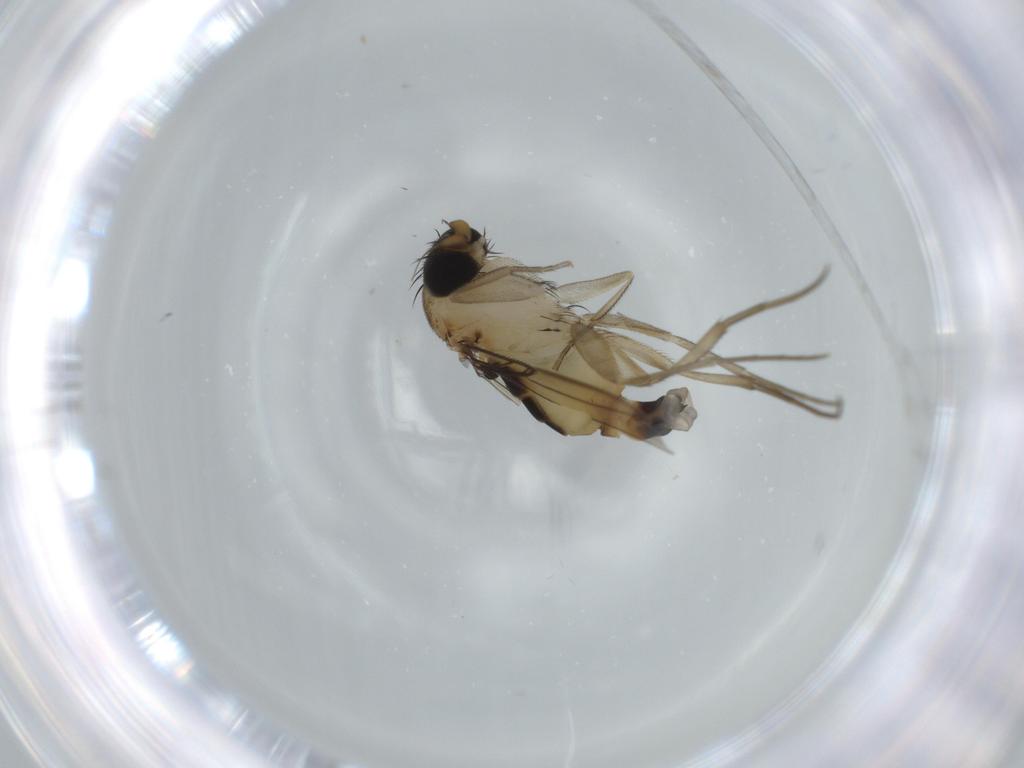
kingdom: Animalia
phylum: Arthropoda
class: Insecta
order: Diptera
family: Phoridae
